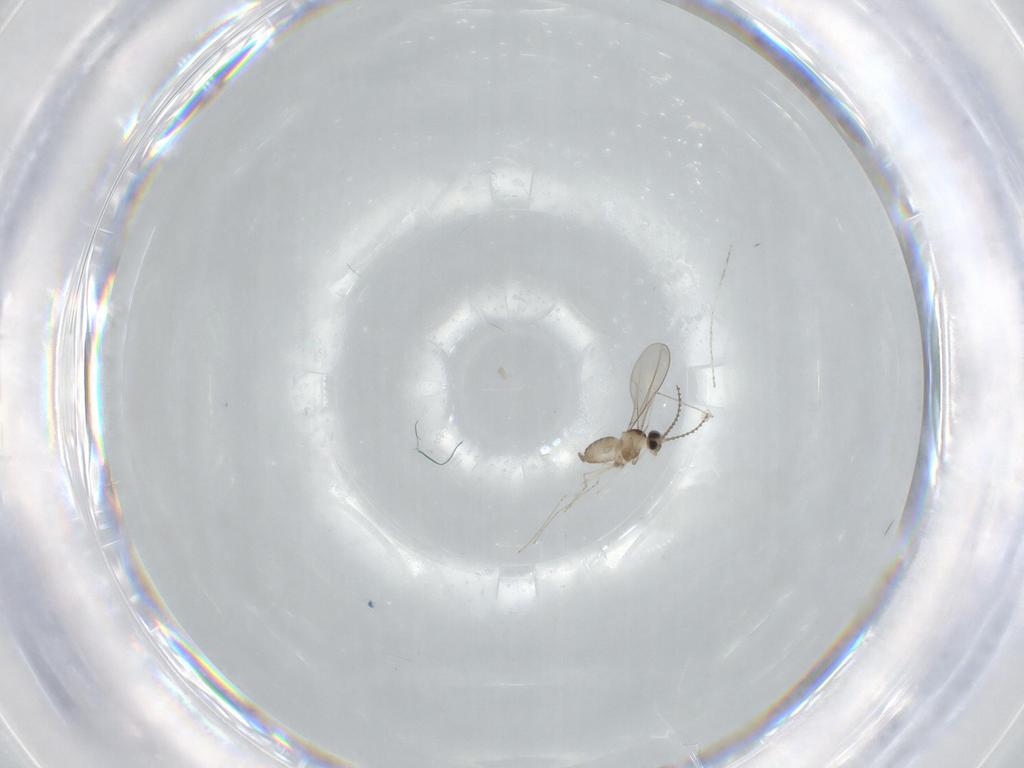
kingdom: Animalia
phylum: Arthropoda
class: Insecta
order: Diptera
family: Cecidomyiidae
